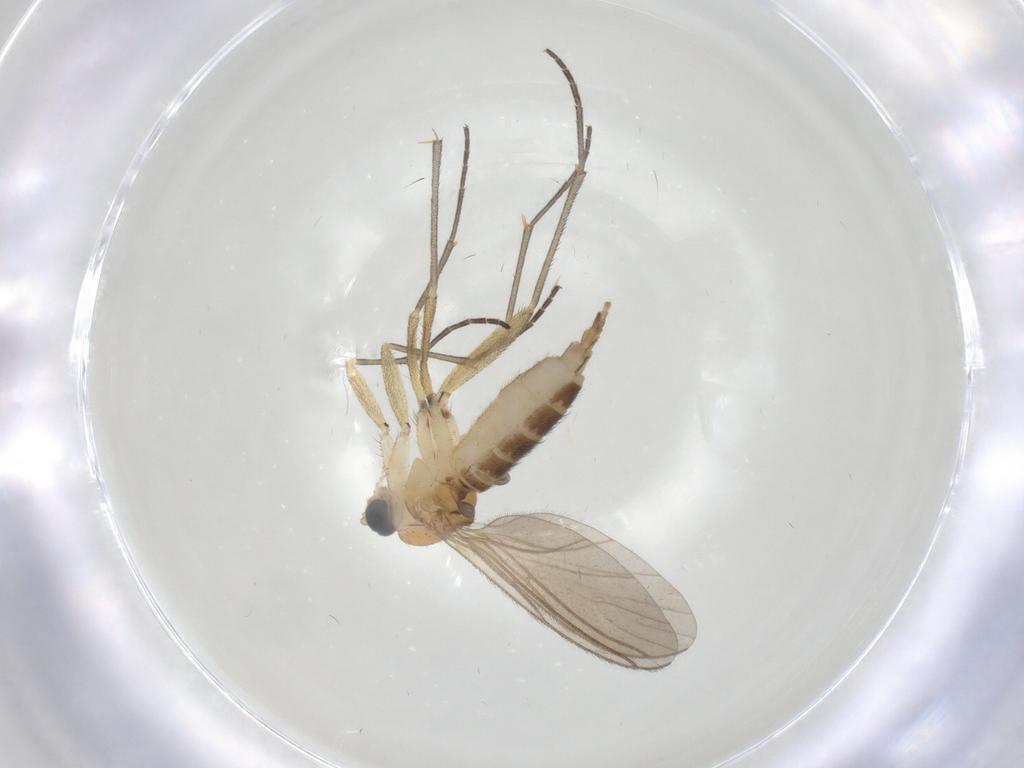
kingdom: Animalia
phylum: Arthropoda
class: Insecta
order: Diptera
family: Sciaridae
